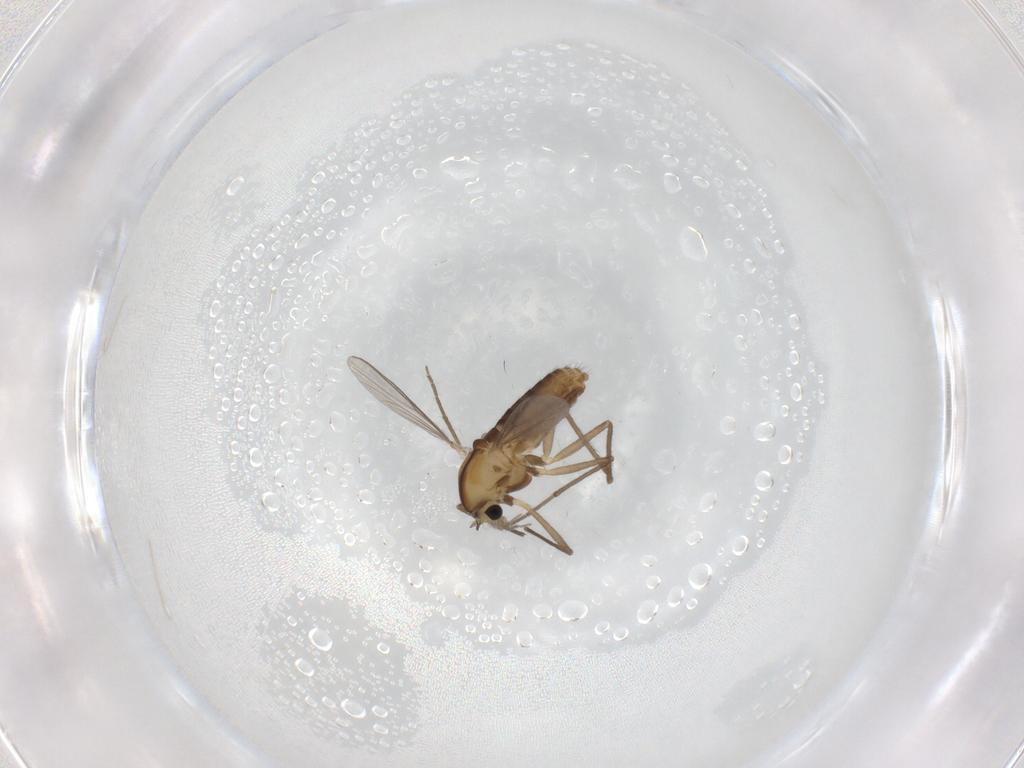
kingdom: Animalia
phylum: Arthropoda
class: Insecta
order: Diptera
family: Chironomidae
